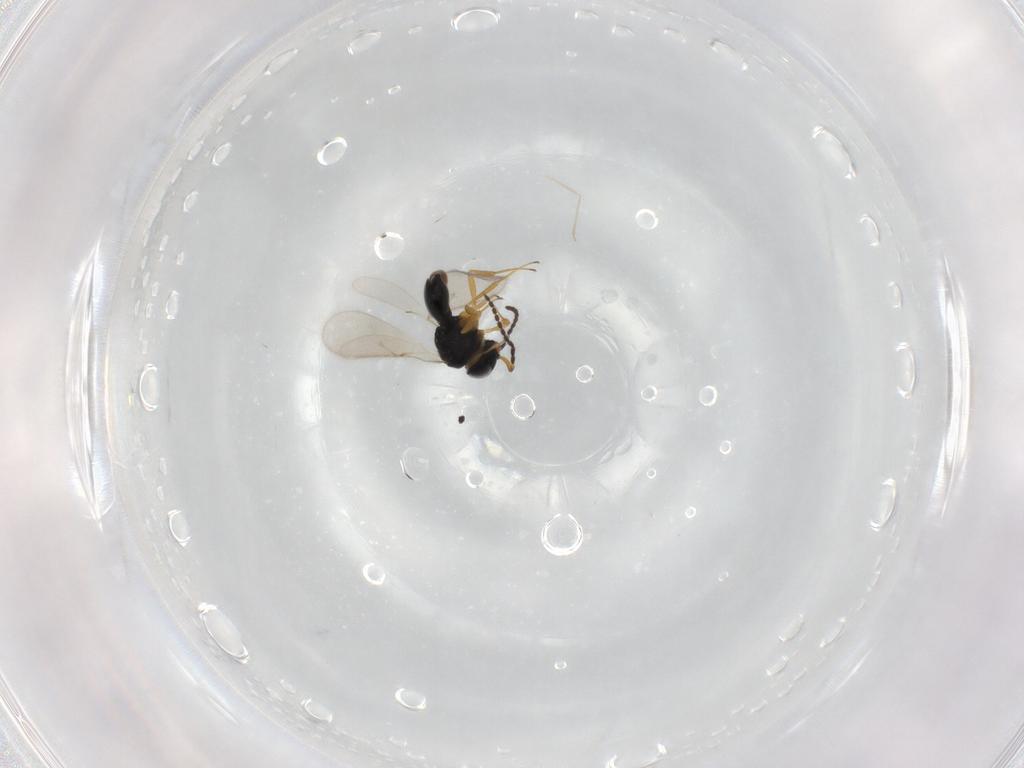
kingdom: Animalia
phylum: Arthropoda
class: Insecta
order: Hymenoptera
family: Scelionidae
